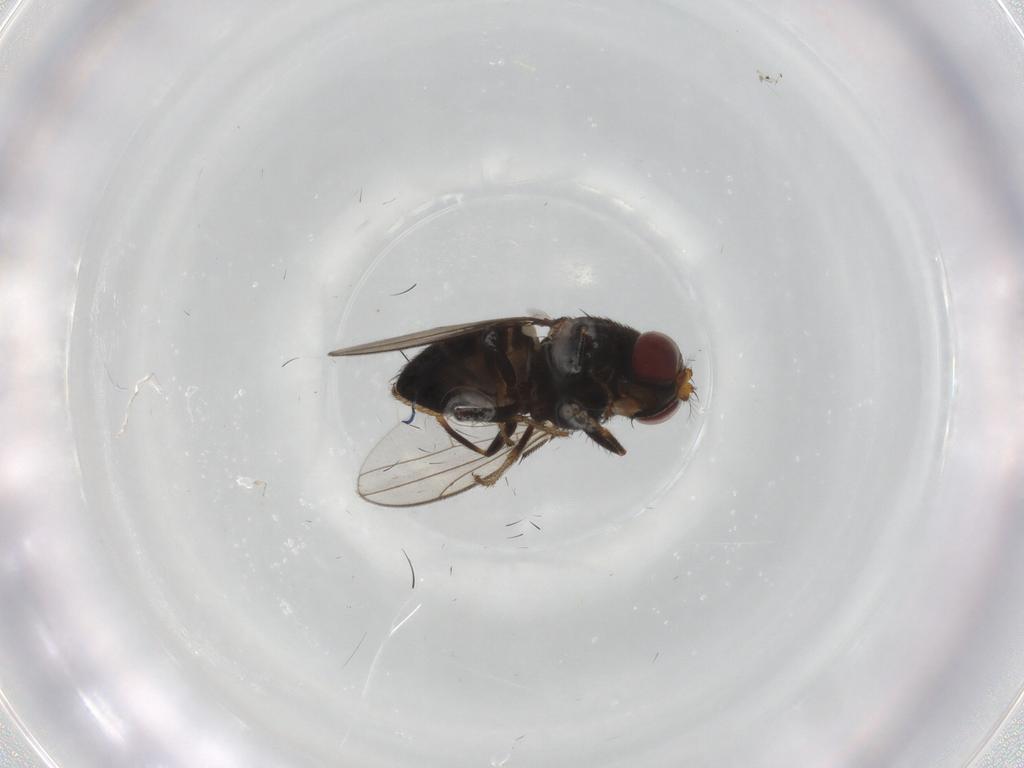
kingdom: Animalia
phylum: Arthropoda
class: Insecta
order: Diptera
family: Ephydridae
